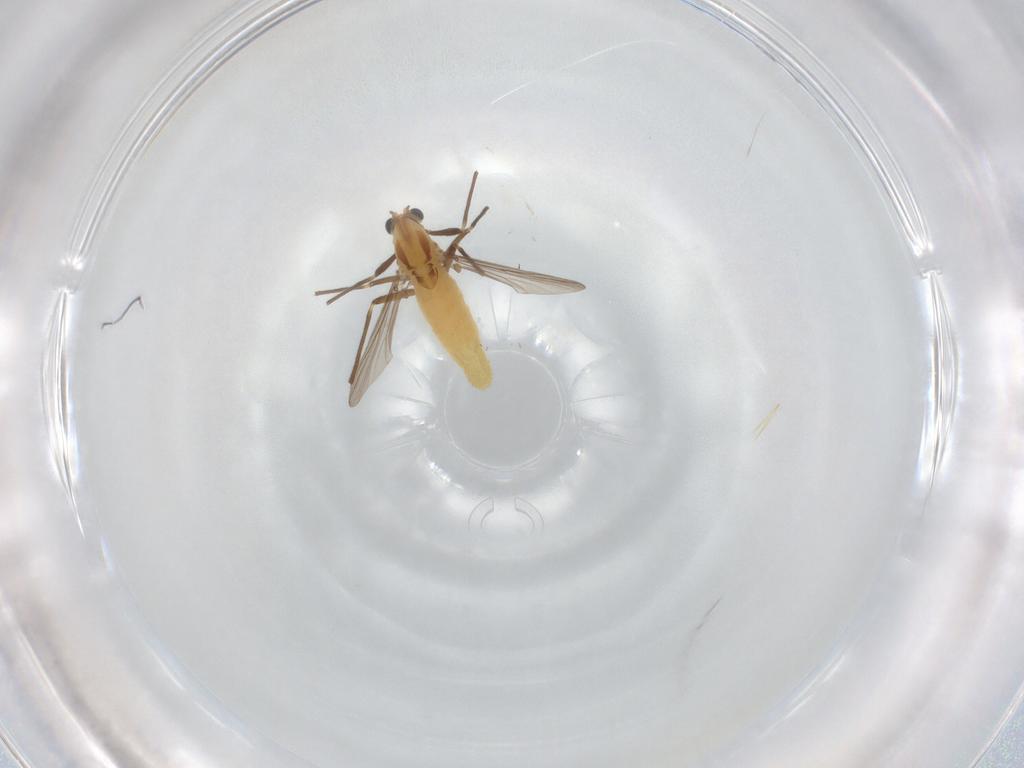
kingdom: Animalia
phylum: Arthropoda
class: Insecta
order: Diptera
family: Chironomidae
